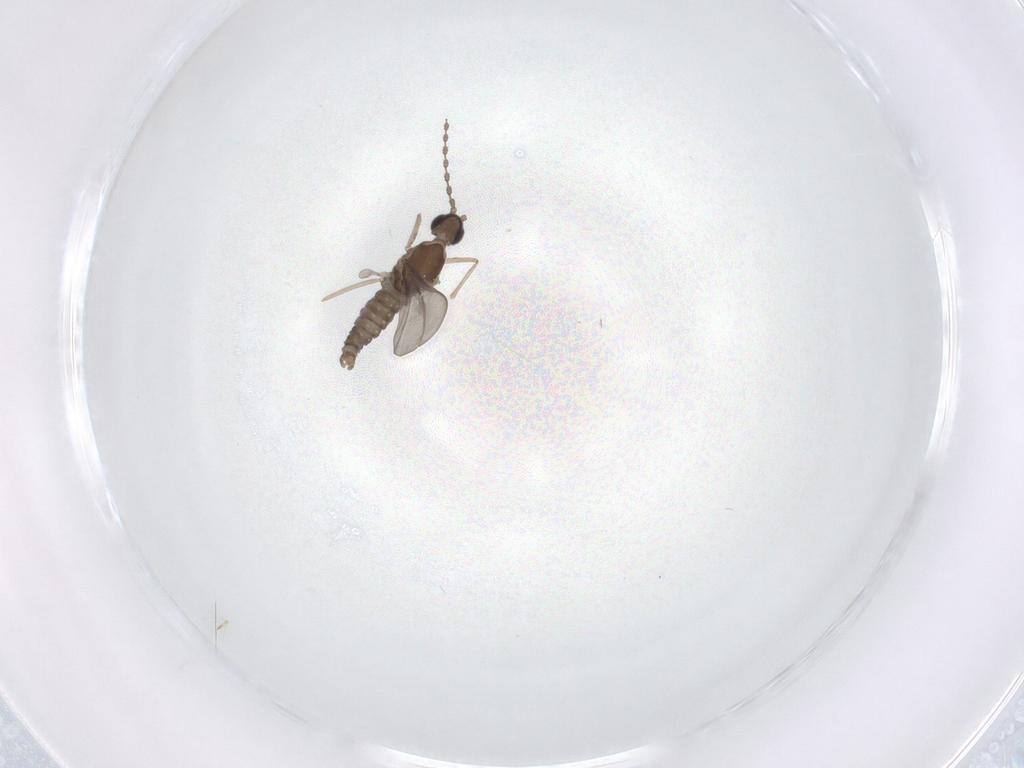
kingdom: Animalia
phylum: Arthropoda
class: Insecta
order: Diptera
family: Chironomidae
